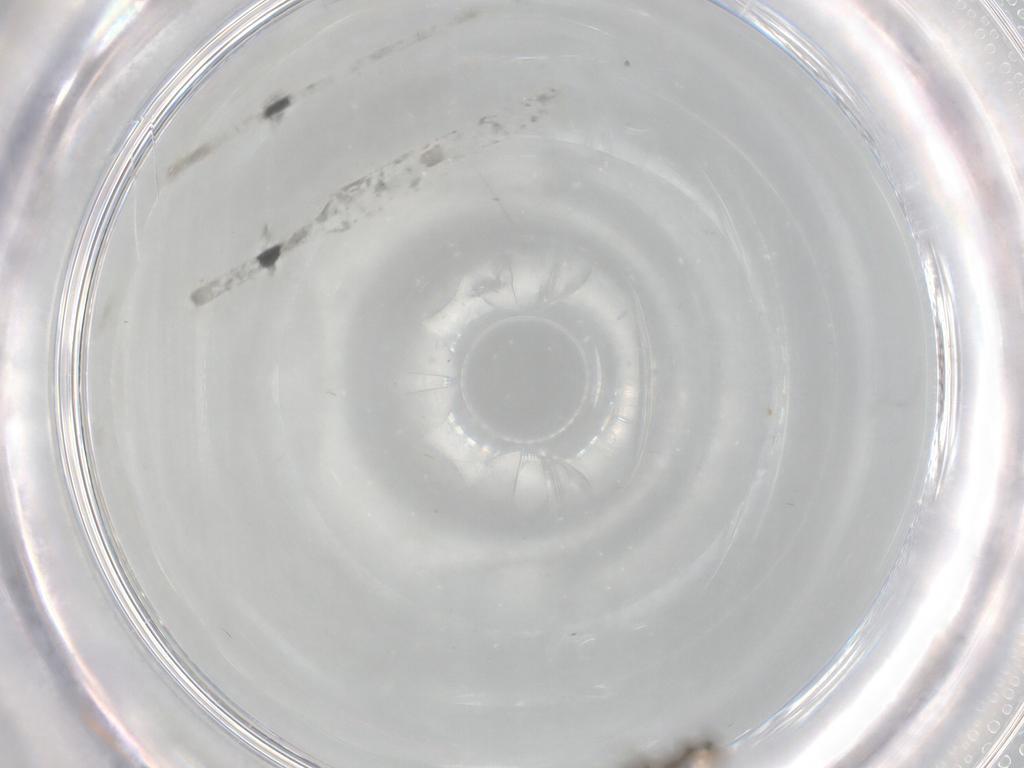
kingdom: Animalia
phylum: Arthropoda
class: Insecta
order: Diptera
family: Sciaridae
